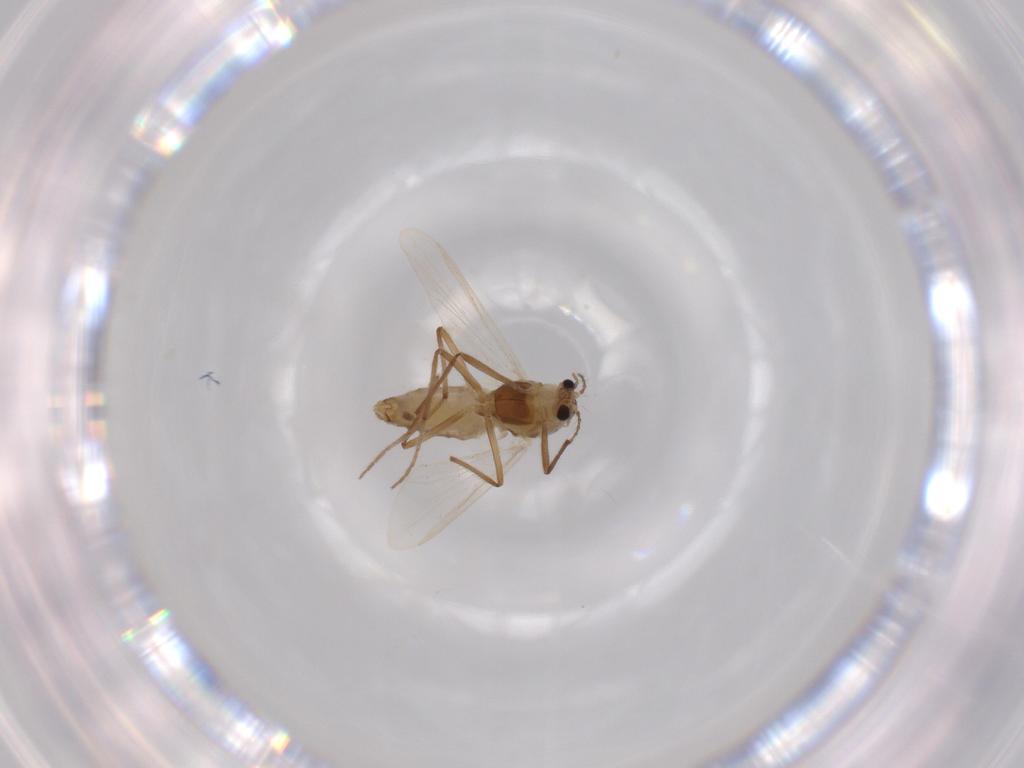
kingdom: Animalia
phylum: Arthropoda
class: Insecta
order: Diptera
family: Chironomidae
